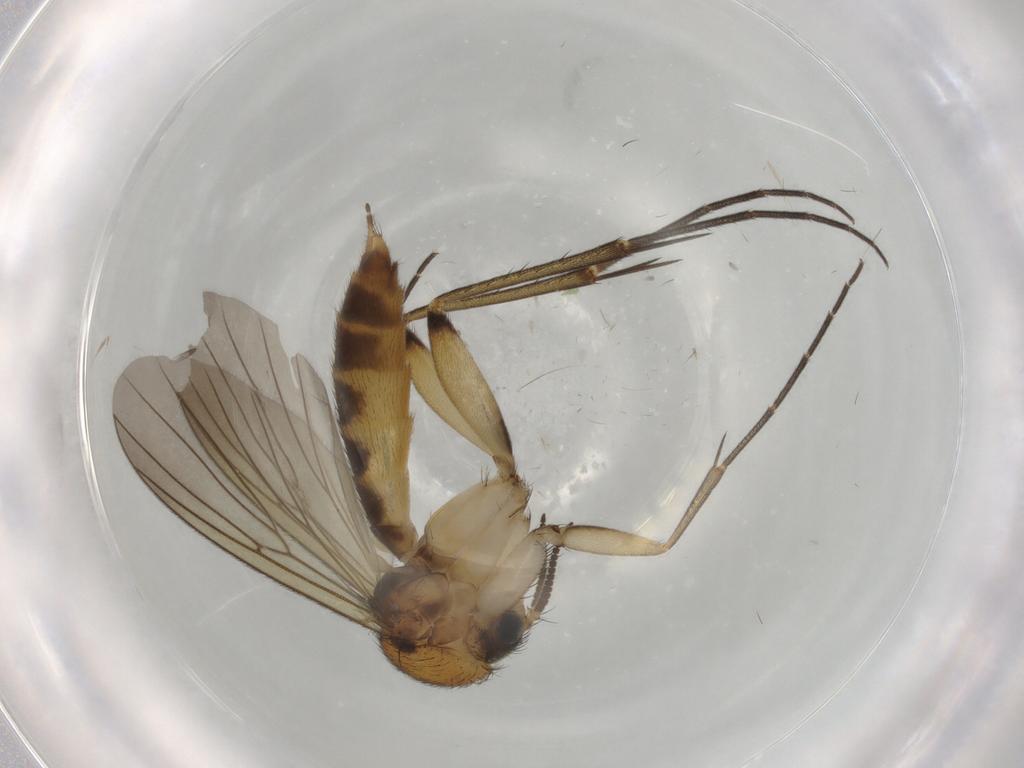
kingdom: Animalia
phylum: Arthropoda
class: Insecta
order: Diptera
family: Mycetophilidae
